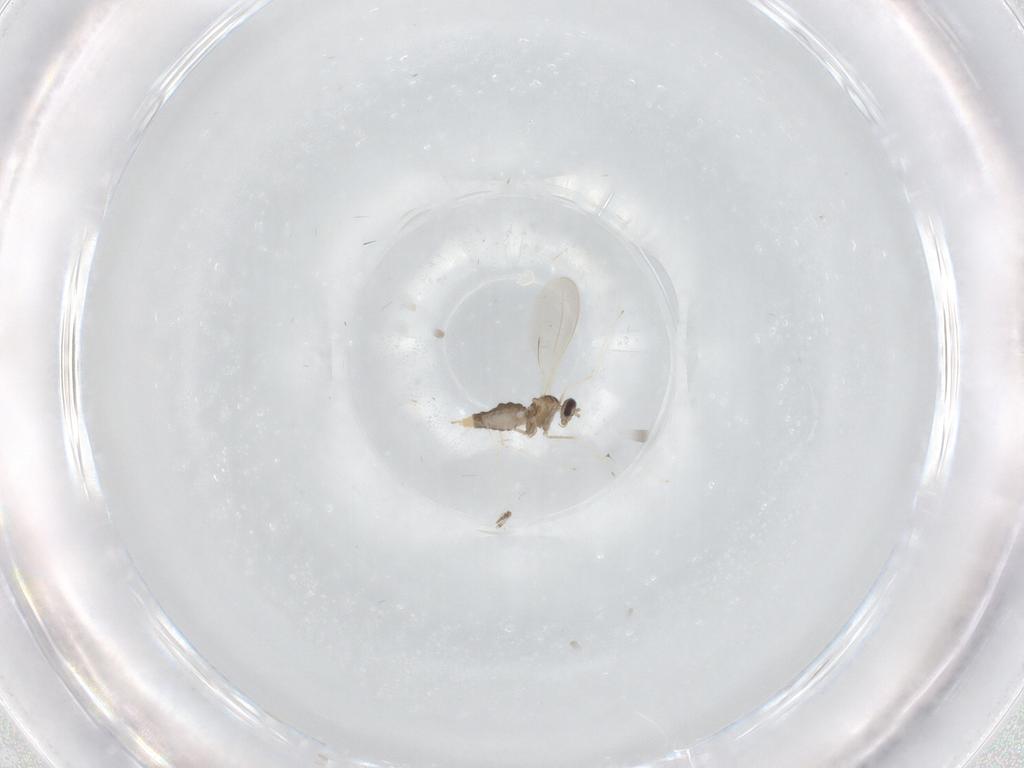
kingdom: Animalia
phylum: Arthropoda
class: Insecta
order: Diptera
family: Cecidomyiidae
